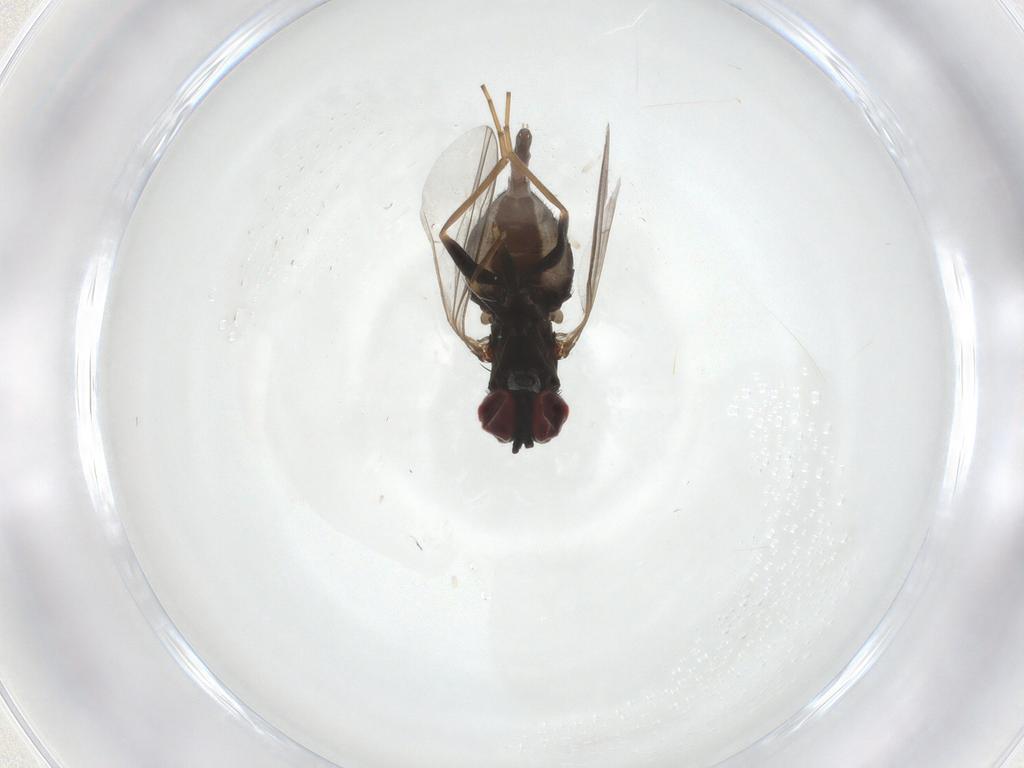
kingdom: Animalia
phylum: Arthropoda
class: Insecta
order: Diptera
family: Dolichopodidae
